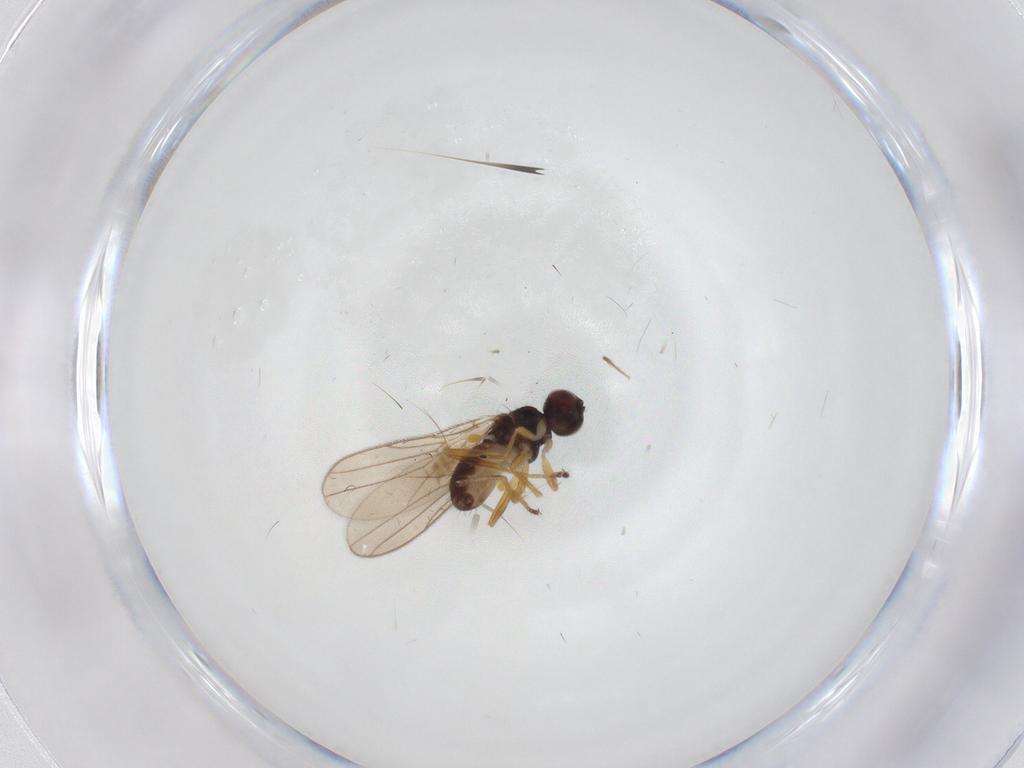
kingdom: Animalia
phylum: Arthropoda
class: Insecta
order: Diptera
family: Chloropidae
